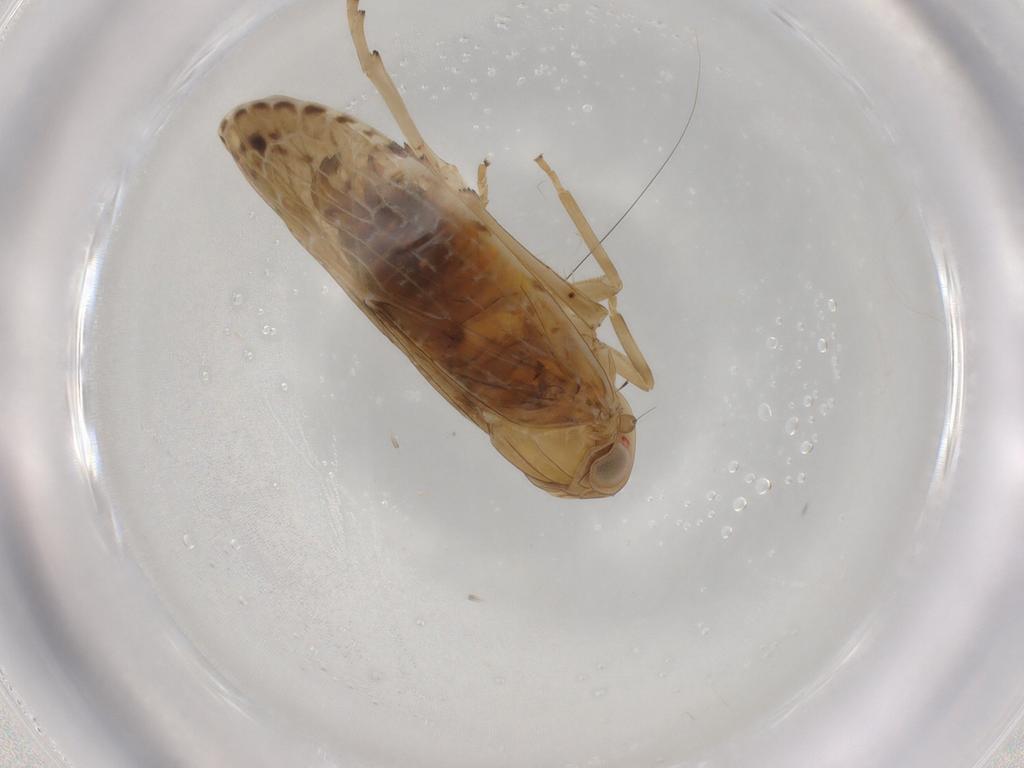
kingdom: Animalia
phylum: Arthropoda
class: Insecta
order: Hemiptera
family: Pyrrhocoridae
